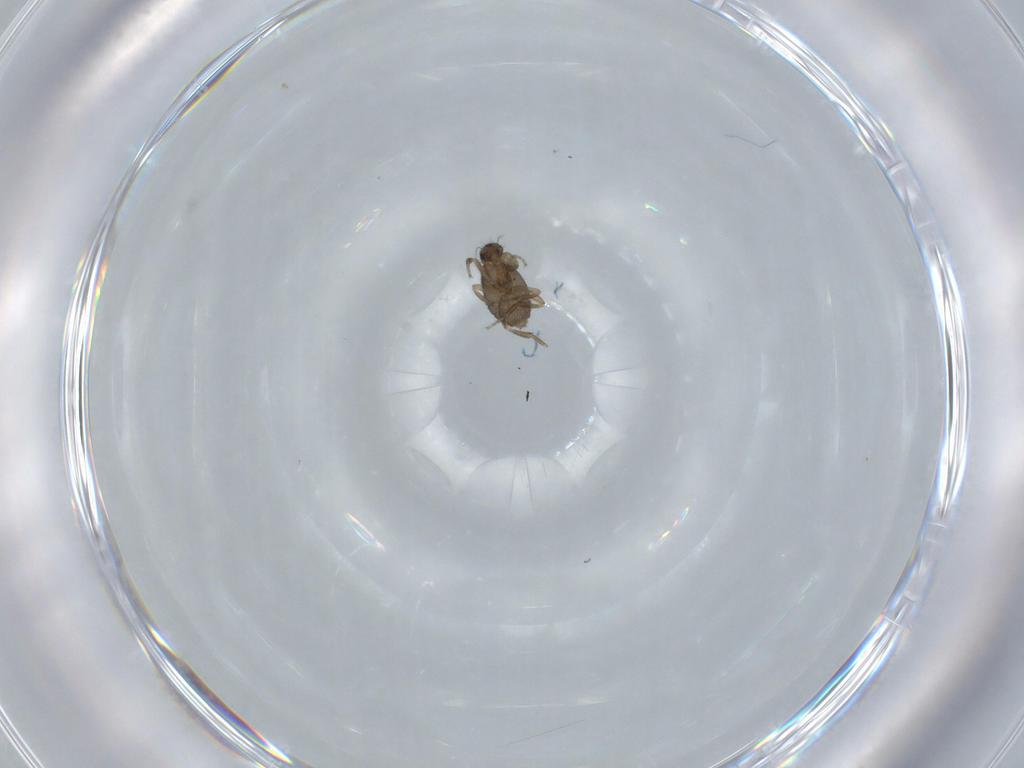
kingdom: Animalia
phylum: Arthropoda
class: Insecta
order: Diptera
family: Phoridae
